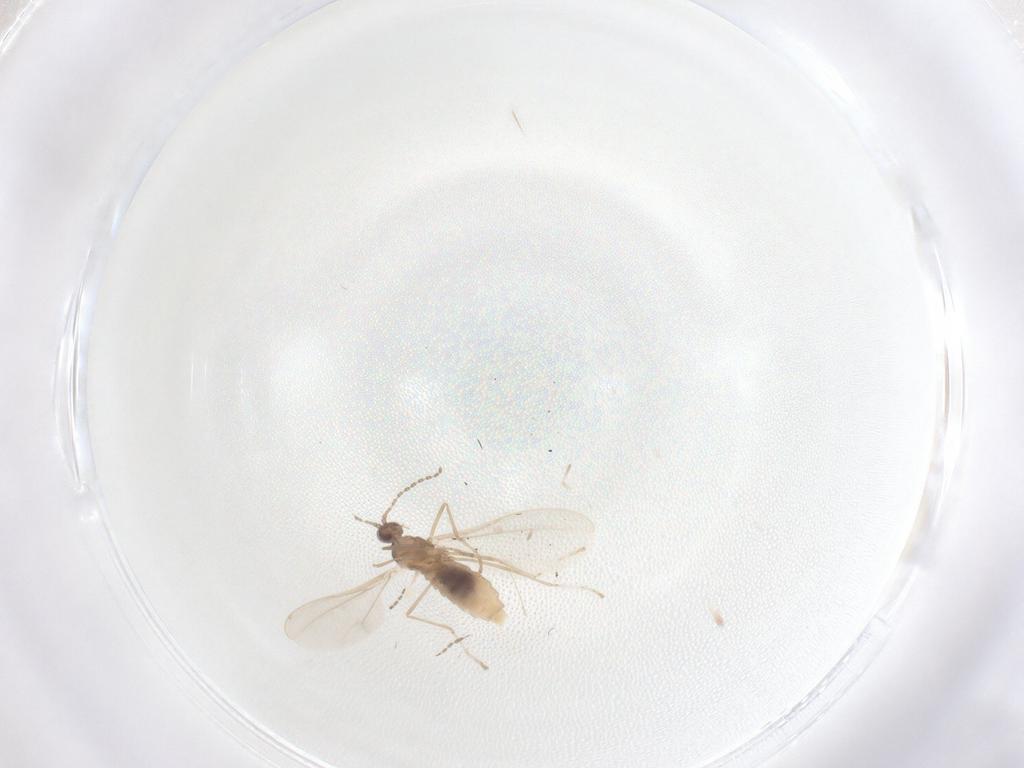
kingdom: Animalia
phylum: Arthropoda
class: Insecta
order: Diptera
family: Cecidomyiidae
